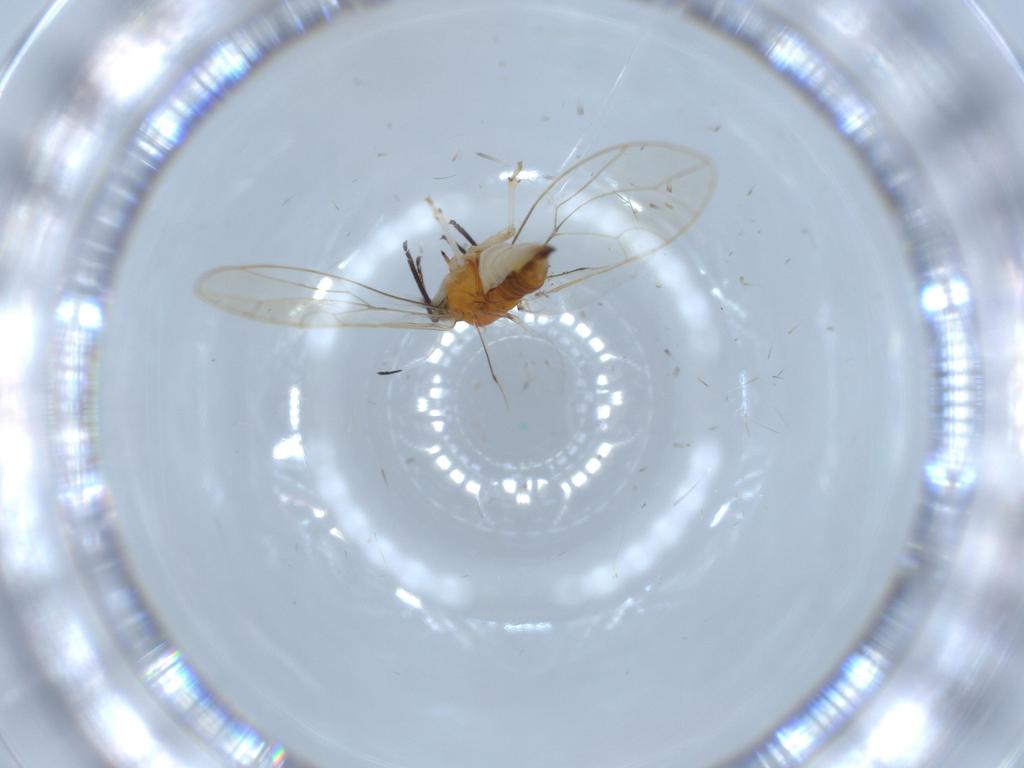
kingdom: Animalia
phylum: Arthropoda
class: Insecta
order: Hemiptera
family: Triozidae
